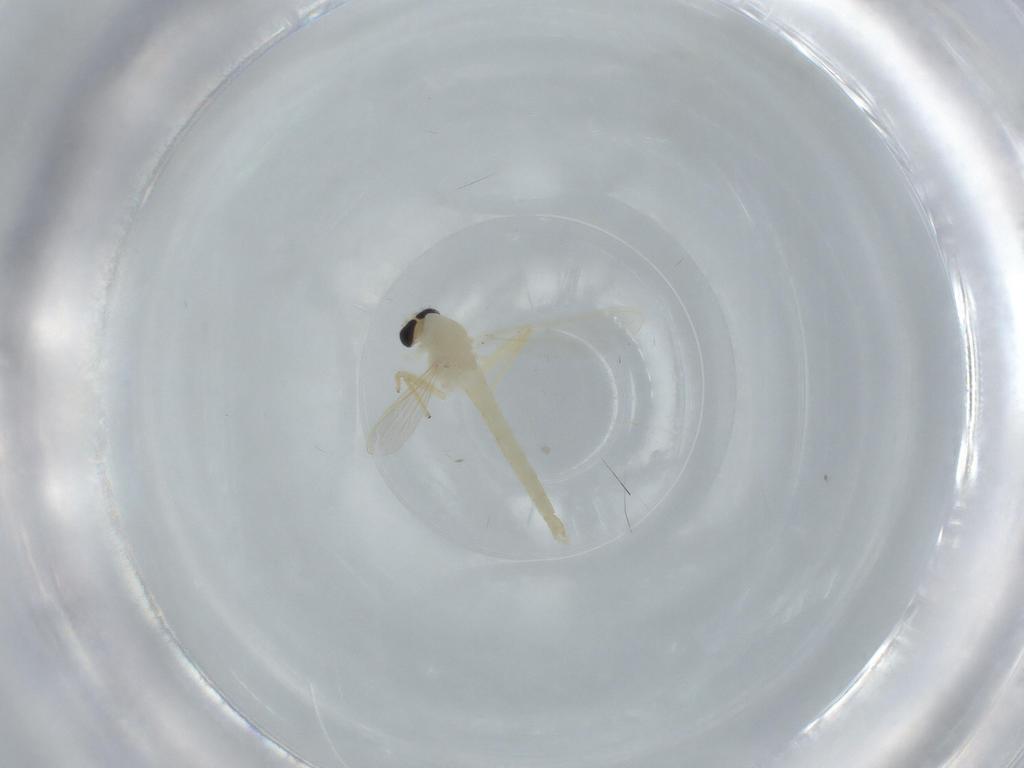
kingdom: Animalia
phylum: Arthropoda
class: Insecta
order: Diptera
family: Chironomidae
